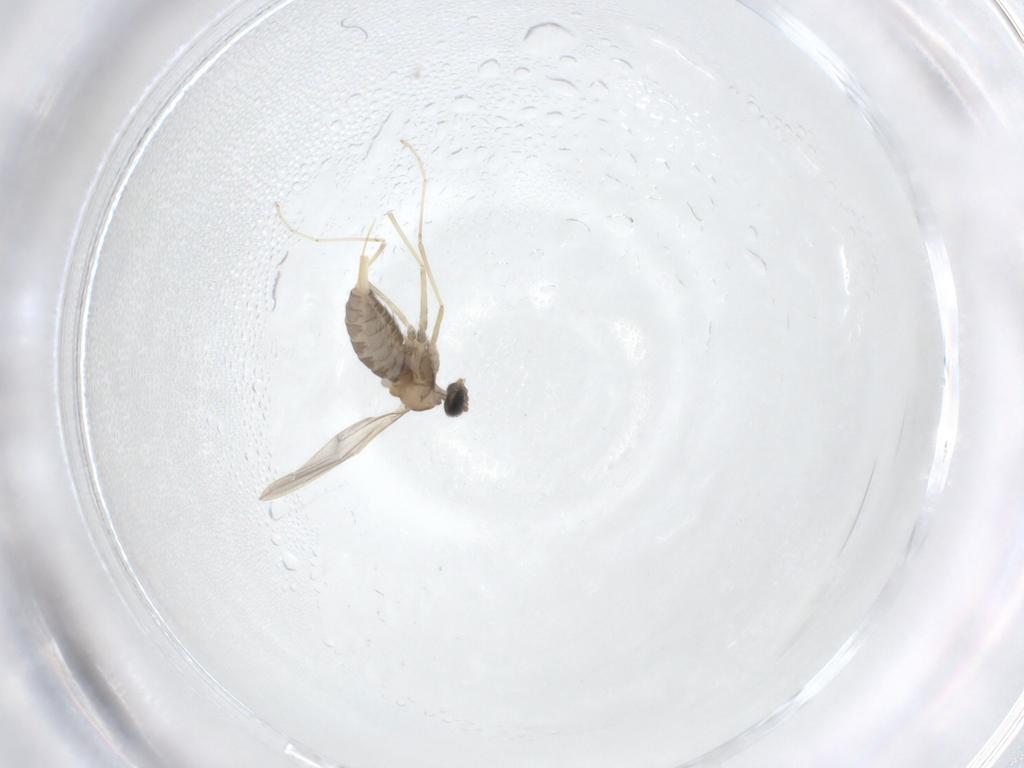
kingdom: Animalia
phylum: Arthropoda
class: Insecta
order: Diptera
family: Cecidomyiidae
